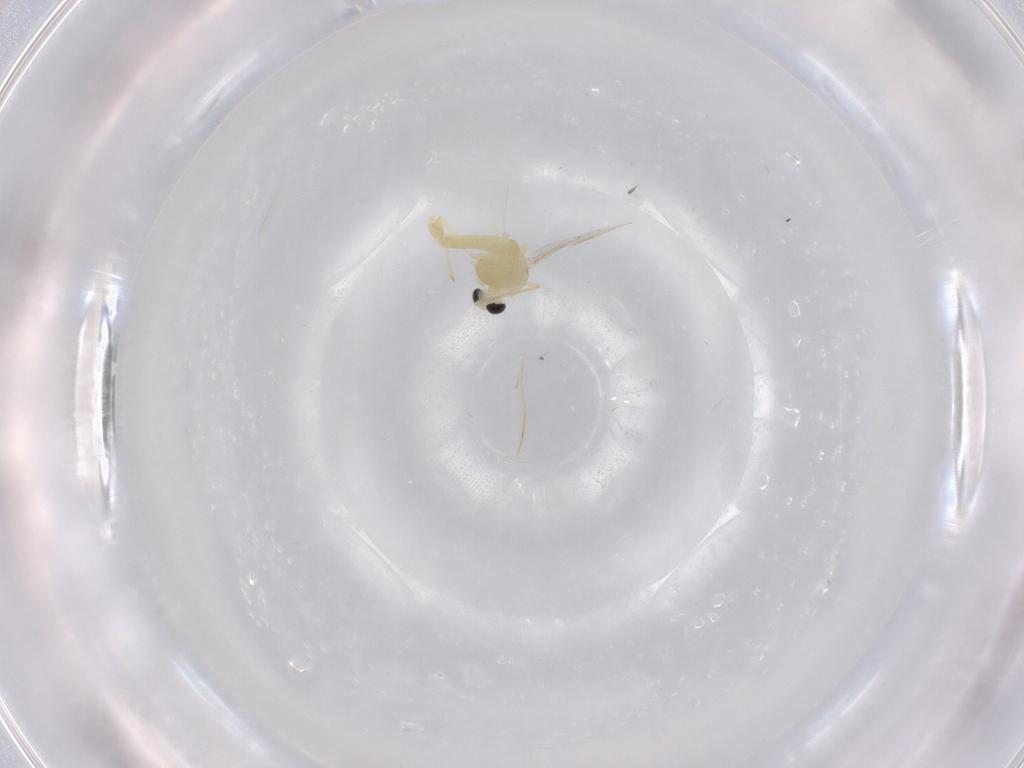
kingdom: Animalia
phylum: Arthropoda
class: Insecta
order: Diptera
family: Chironomidae
